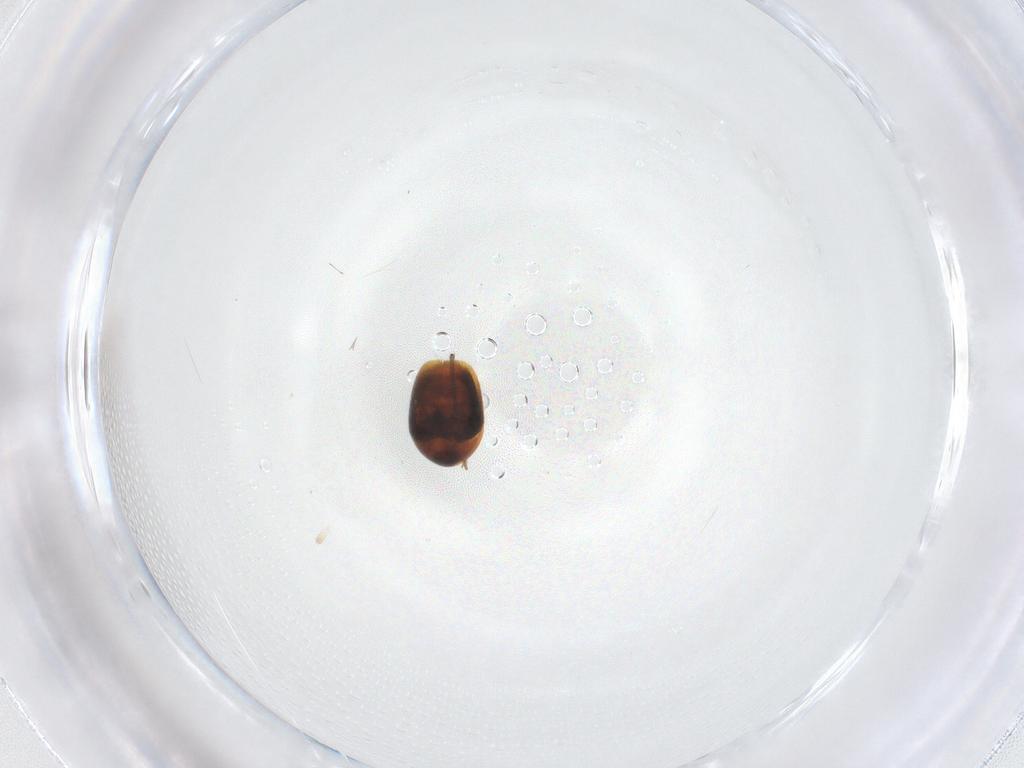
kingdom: Animalia
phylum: Arthropoda
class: Insecta
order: Coleoptera
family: Corylophidae
